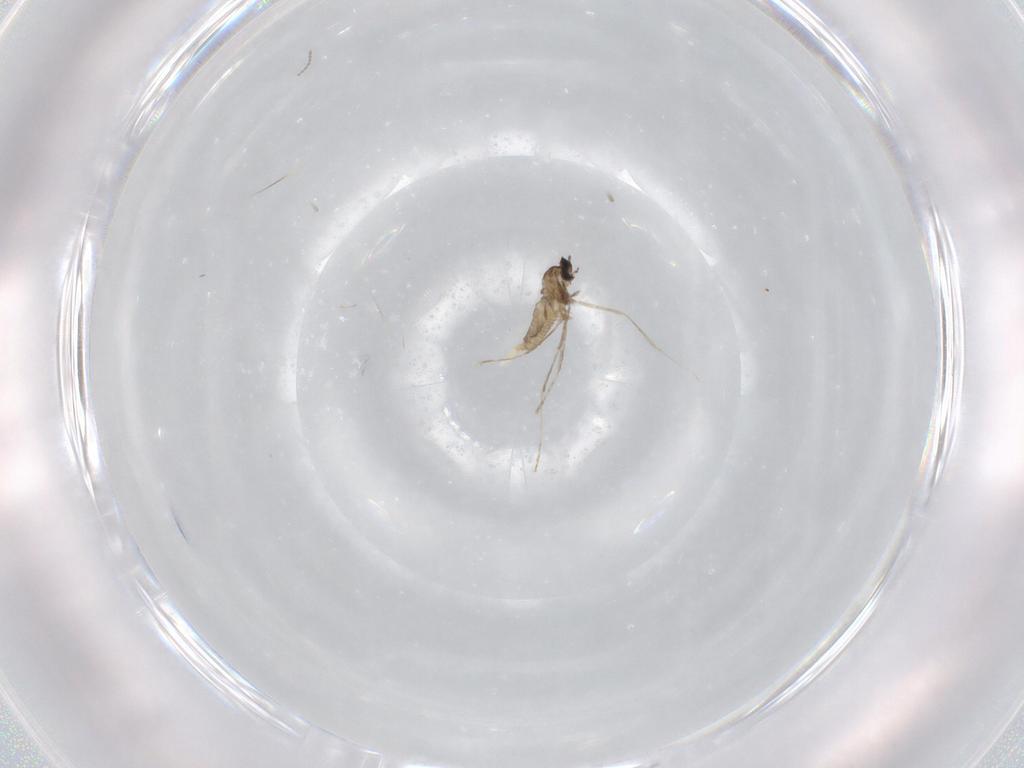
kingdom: Animalia
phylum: Arthropoda
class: Insecta
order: Diptera
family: Cecidomyiidae
